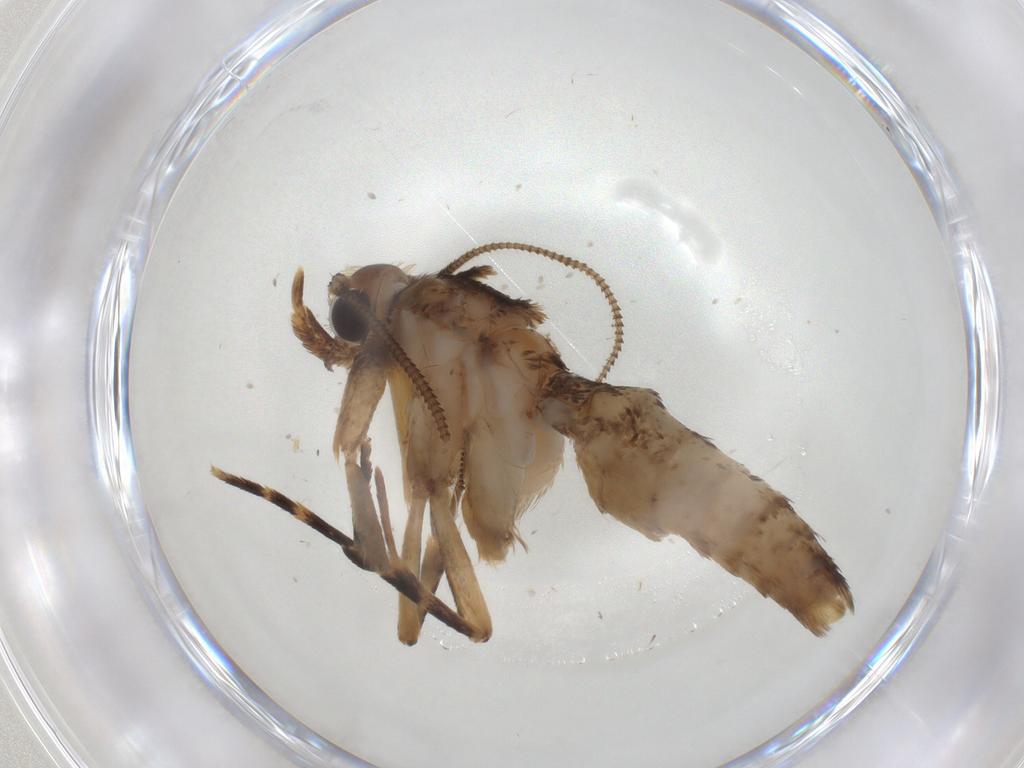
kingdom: Animalia
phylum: Arthropoda
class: Insecta
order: Lepidoptera
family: Tineidae
